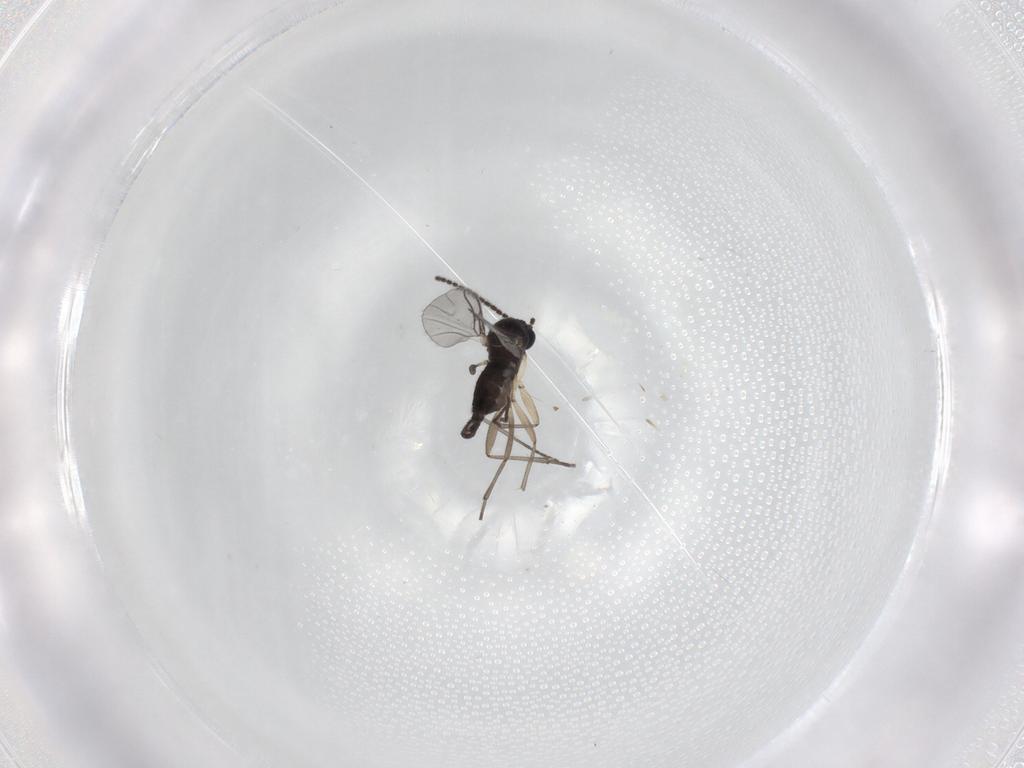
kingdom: Animalia
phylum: Arthropoda
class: Insecta
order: Diptera
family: Sciaridae
